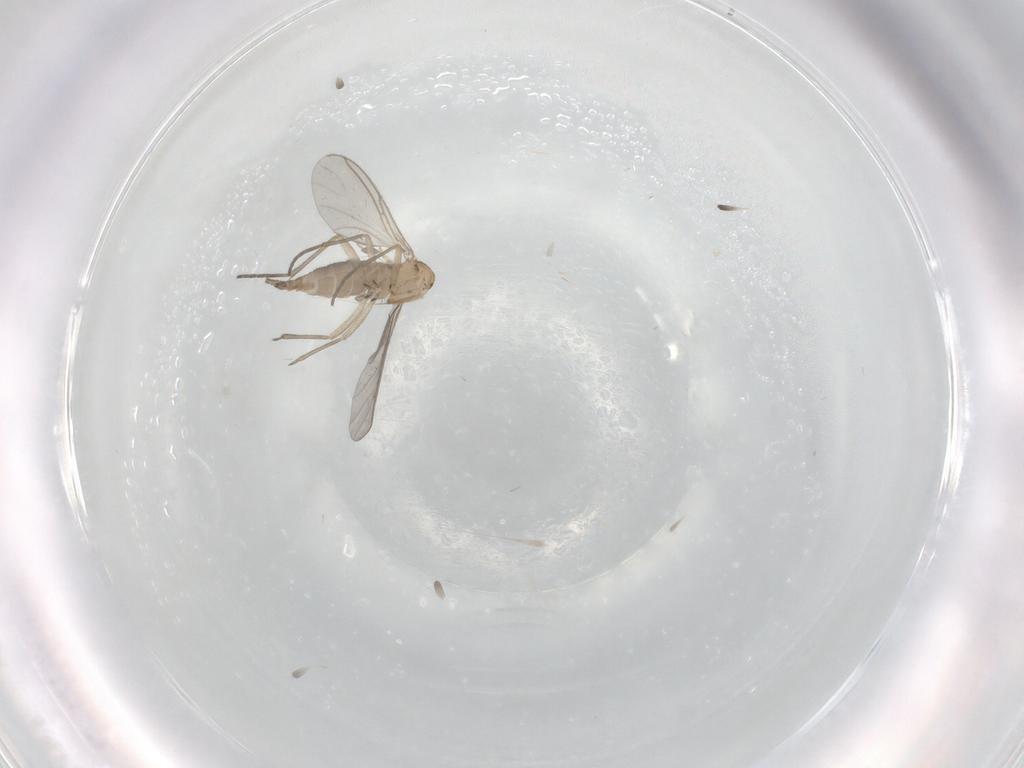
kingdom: Animalia
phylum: Arthropoda
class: Insecta
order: Diptera
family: Sciaridae
